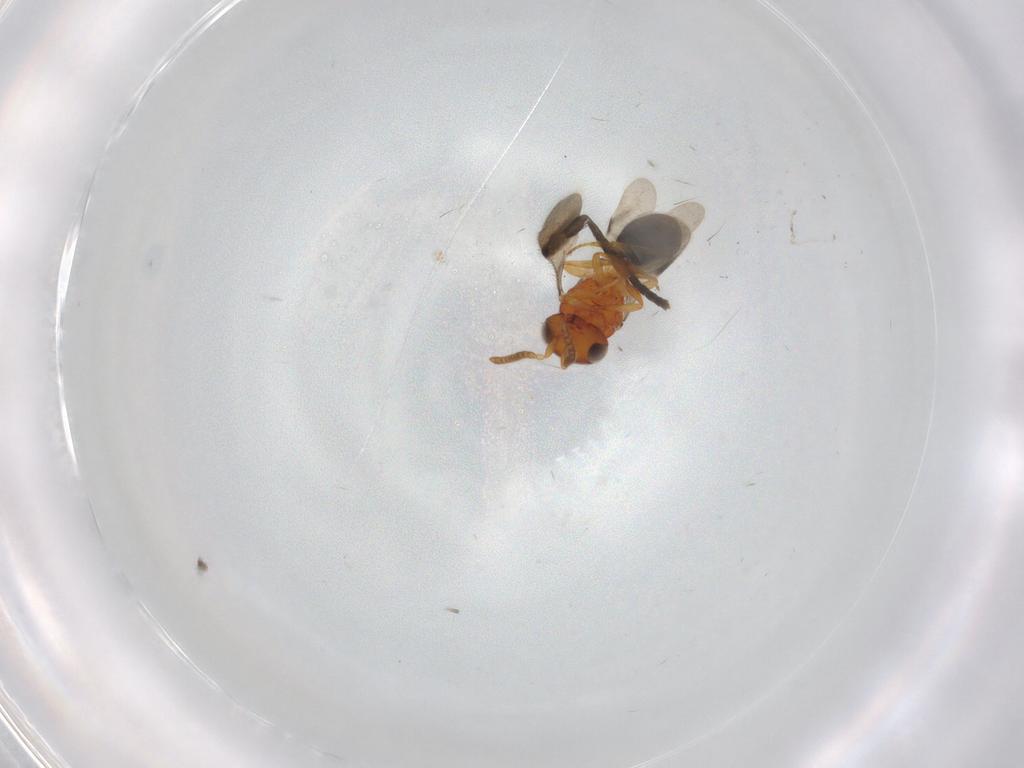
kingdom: Animalia
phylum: Arthropoda
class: Insecta
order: Hymenoptera
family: Scelionidae
